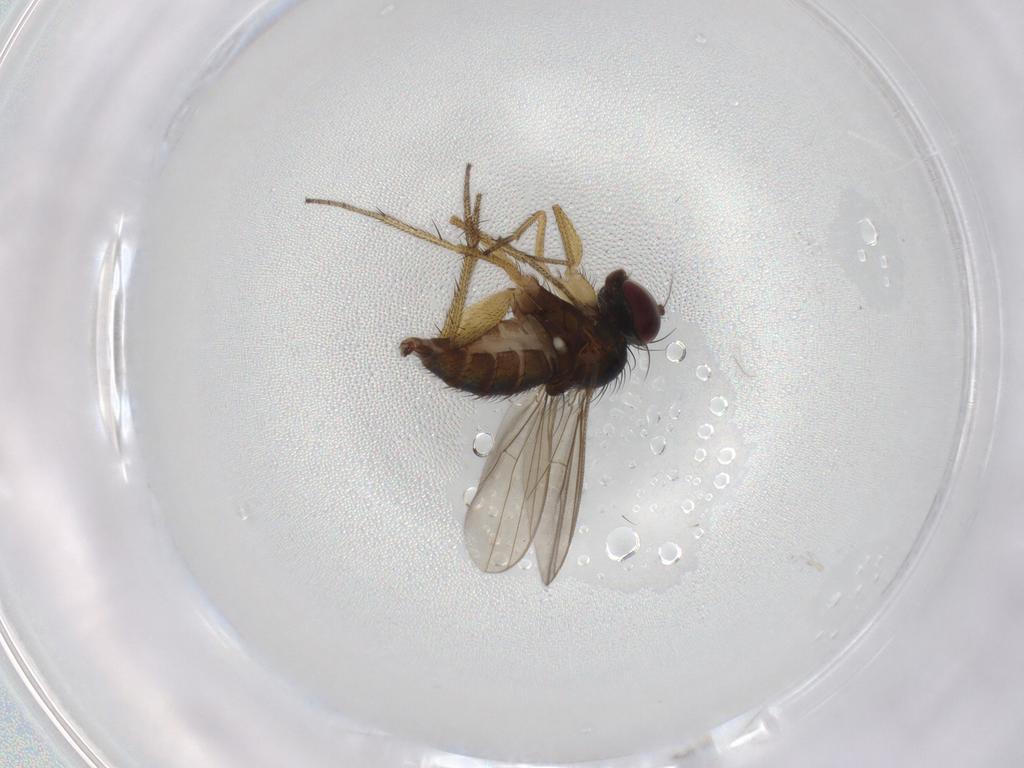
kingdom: Animalia
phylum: Arthropoda
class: Insecta
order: Diptera
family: Dolichopodidae
